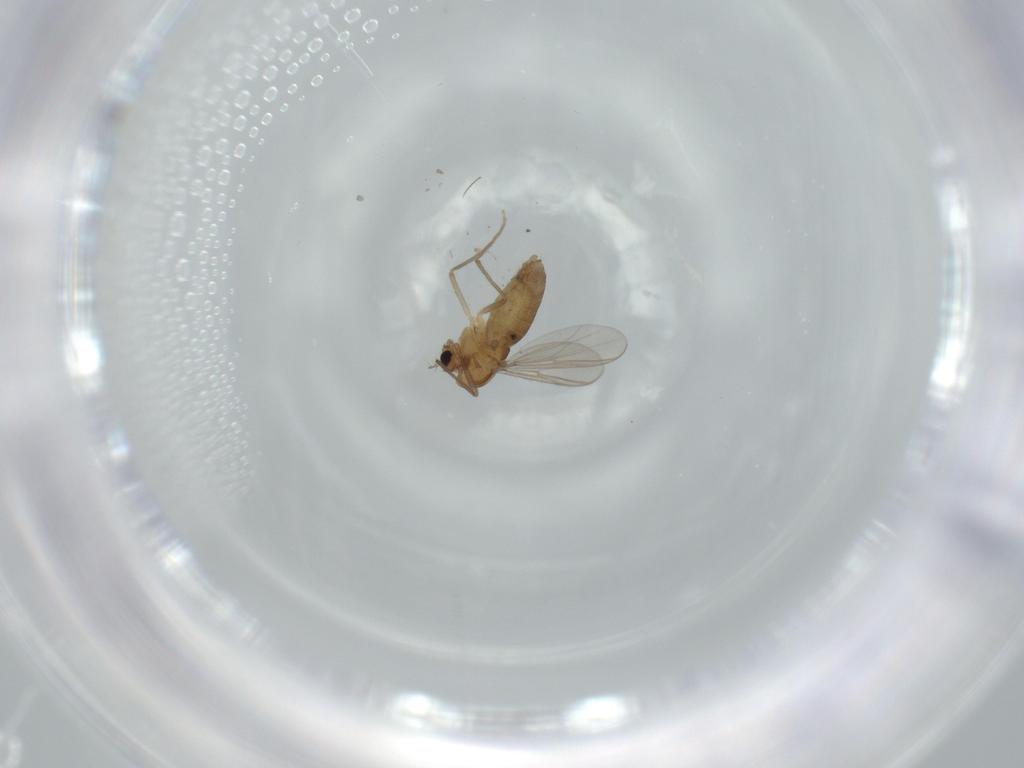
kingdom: Animalia
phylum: Arthropoda
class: Insecta
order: Diptera
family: Chironomidae
